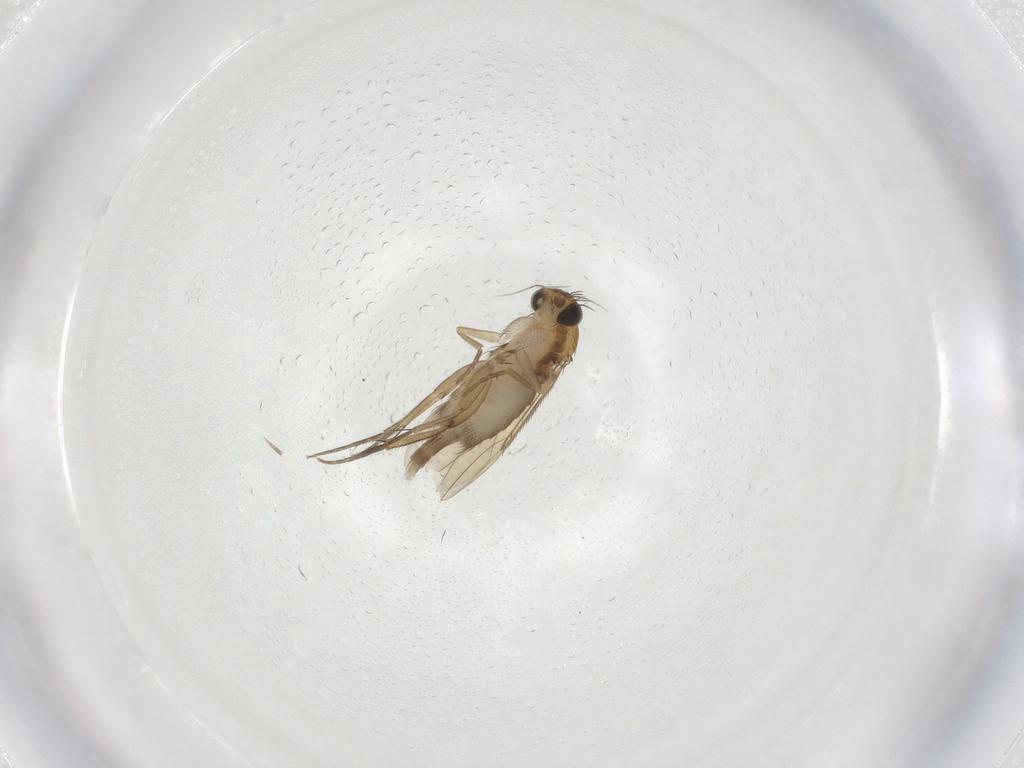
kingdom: Animalia
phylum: Arthropoda
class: Insecta
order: Diptera
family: Phoridae
